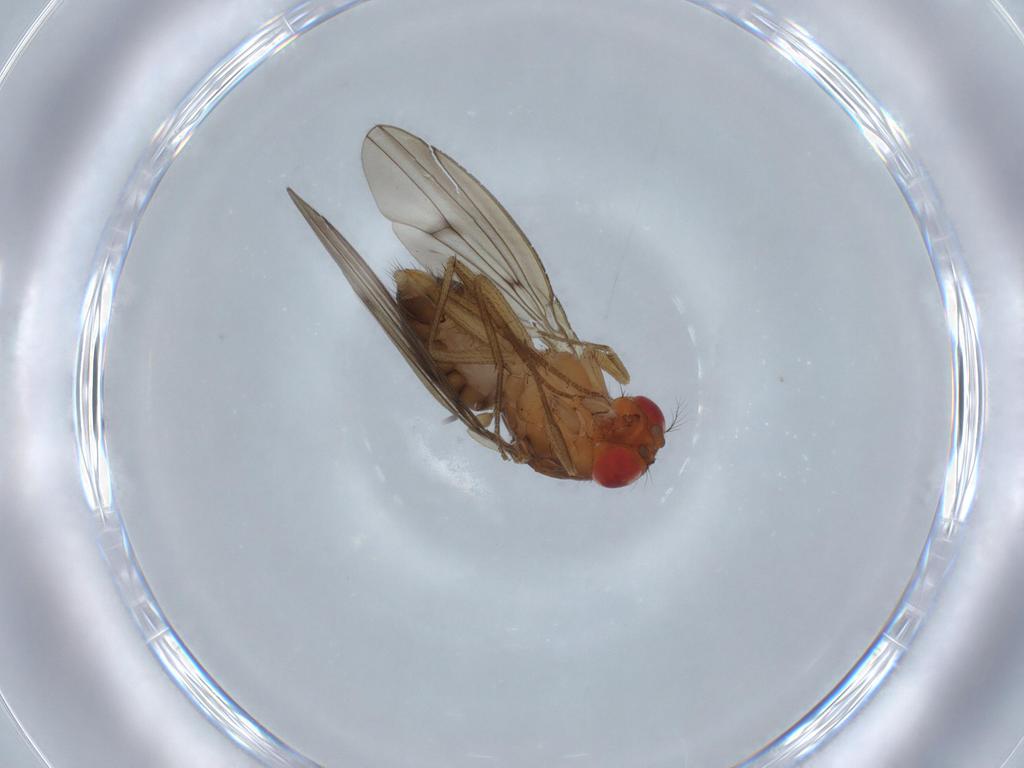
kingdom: Animalia
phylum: Arthropoda
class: Insecta
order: Diptera
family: Drosophilidae
